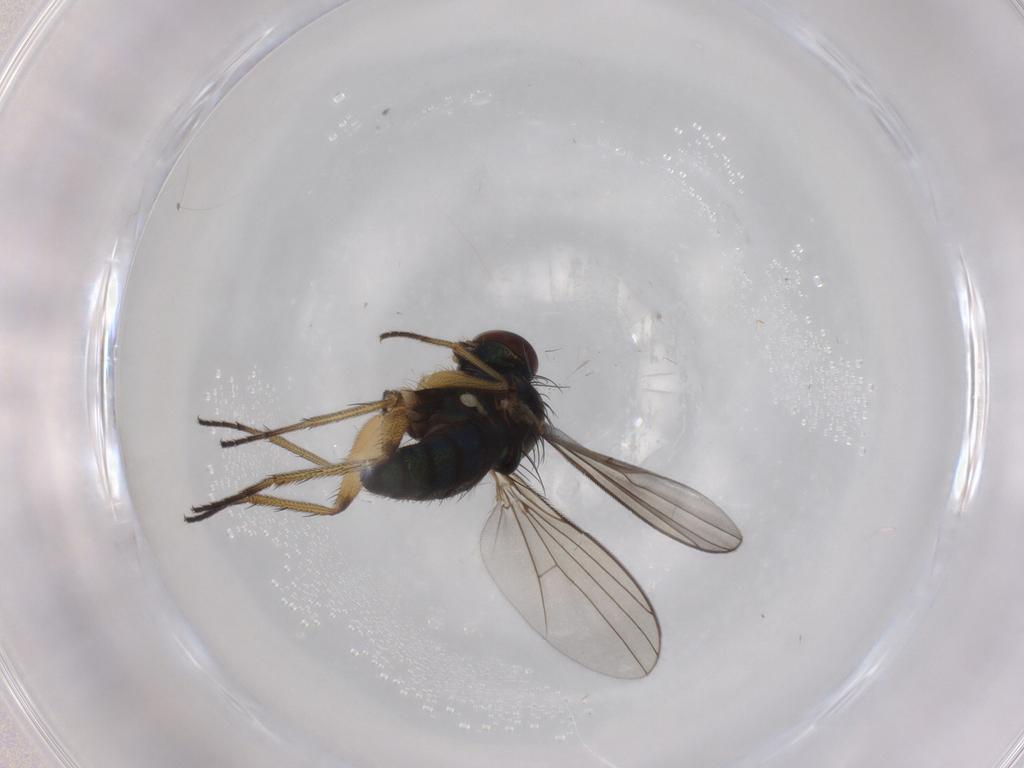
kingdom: Animalia
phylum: Arthropoda
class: Insecta
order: Diptera
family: Dolichopodidae
